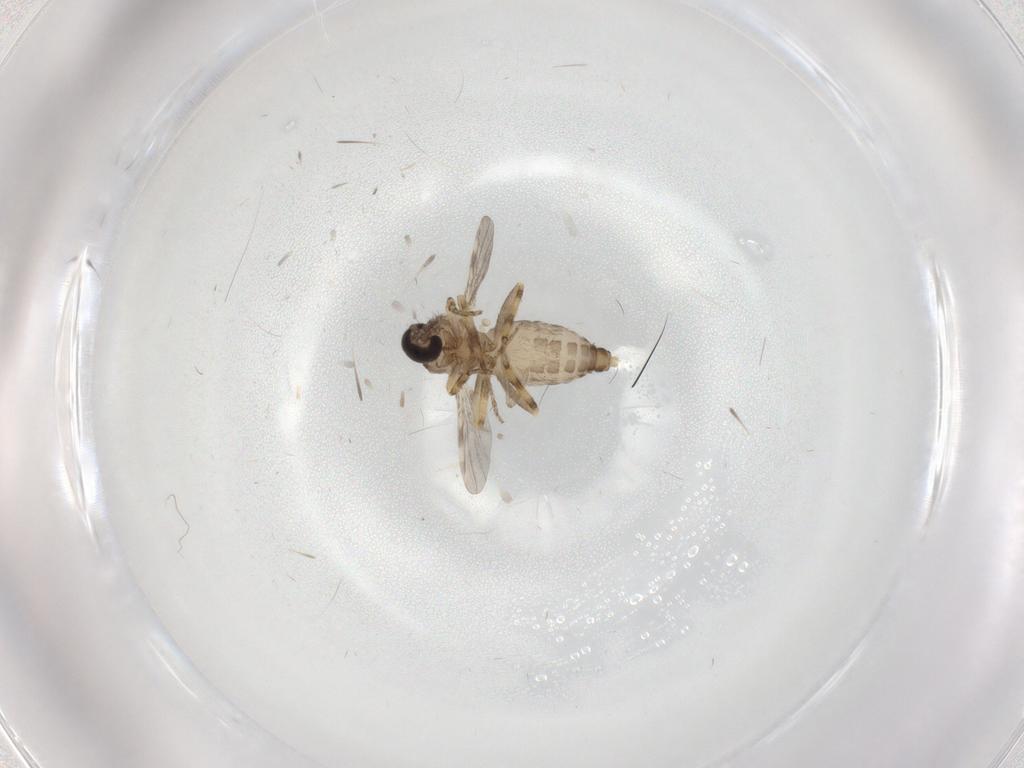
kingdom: Animalia
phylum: Arthropoda
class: Insecta
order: Diptera
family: Ceratopogonidae
